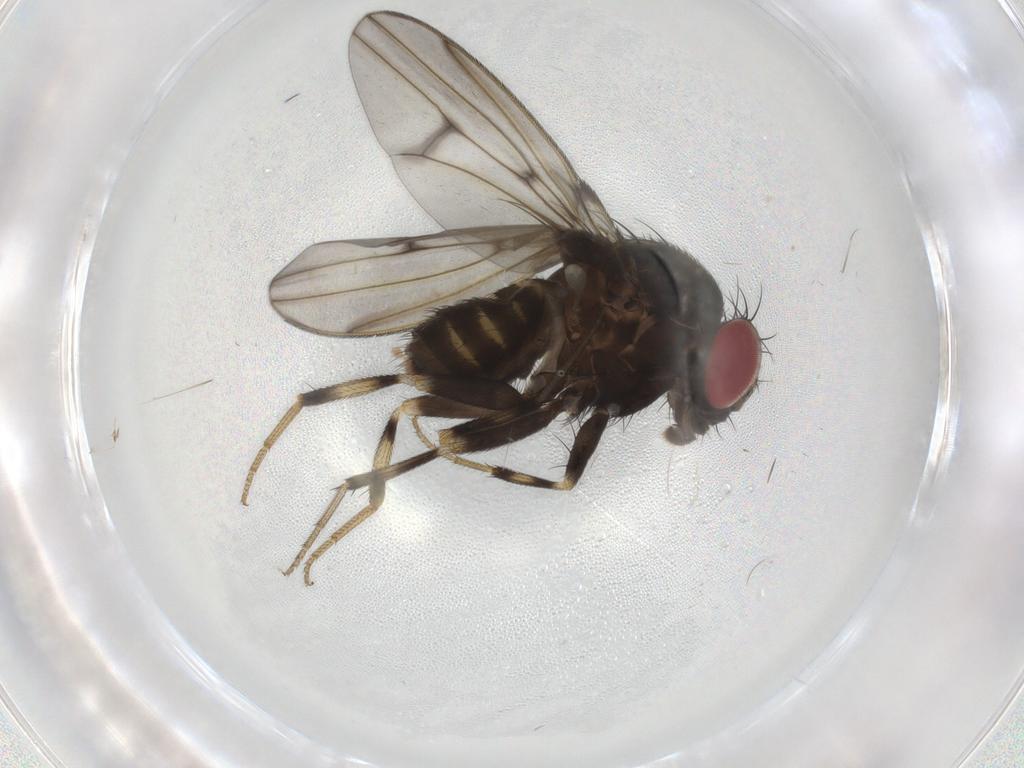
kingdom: Animalia
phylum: Arthropoda
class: Insecta
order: Diptera
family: Drosophilidae
